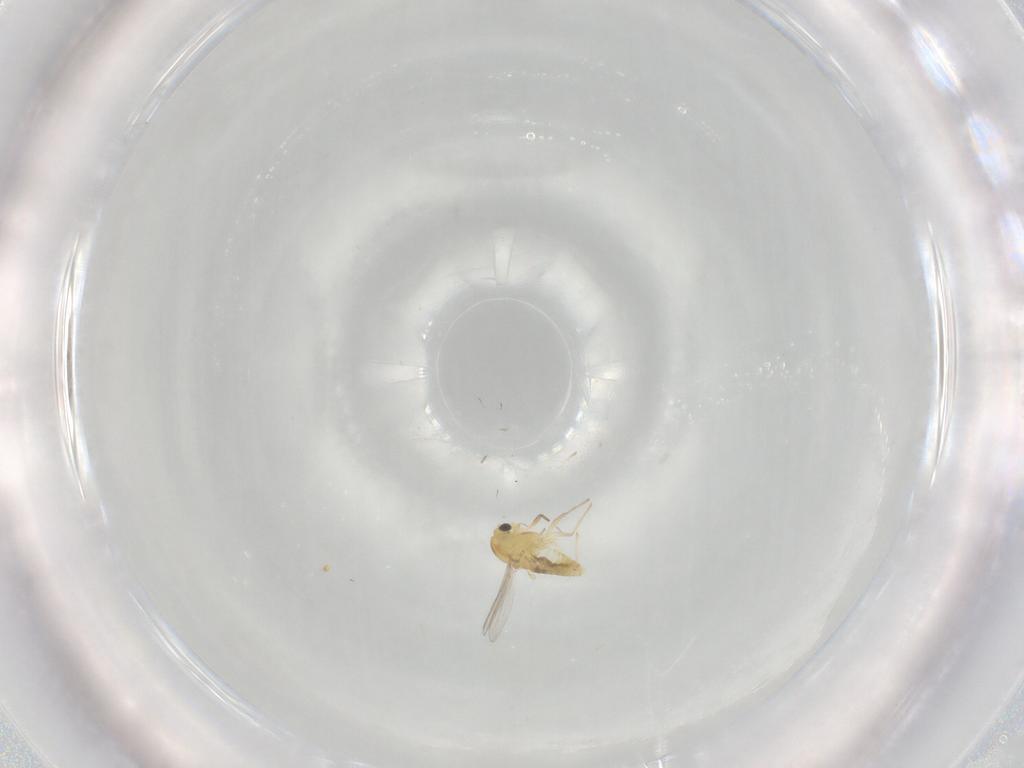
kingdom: Animalia
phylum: Arthropoda
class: Insecta
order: Diptera
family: Chironomidae
